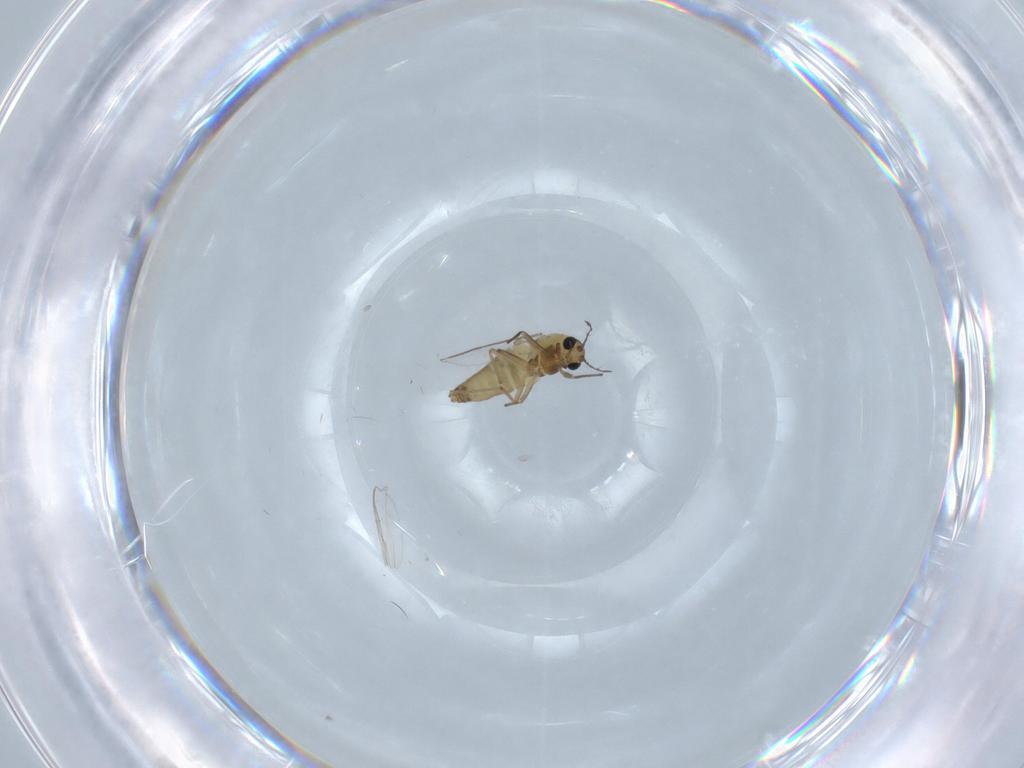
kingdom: Animalia
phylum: Arthropoda
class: Insecta
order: Diptera
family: Chironomidae
